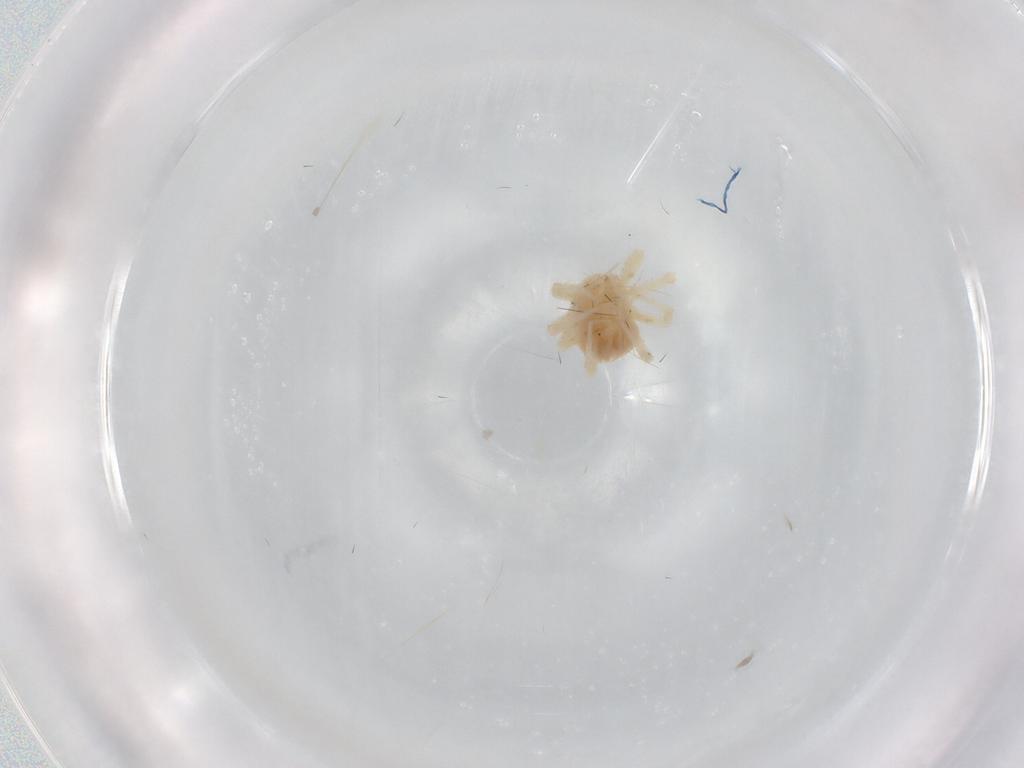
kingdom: Animalia
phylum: Arthropoda
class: Arachnida
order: Trombidiformes
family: Anystidae
